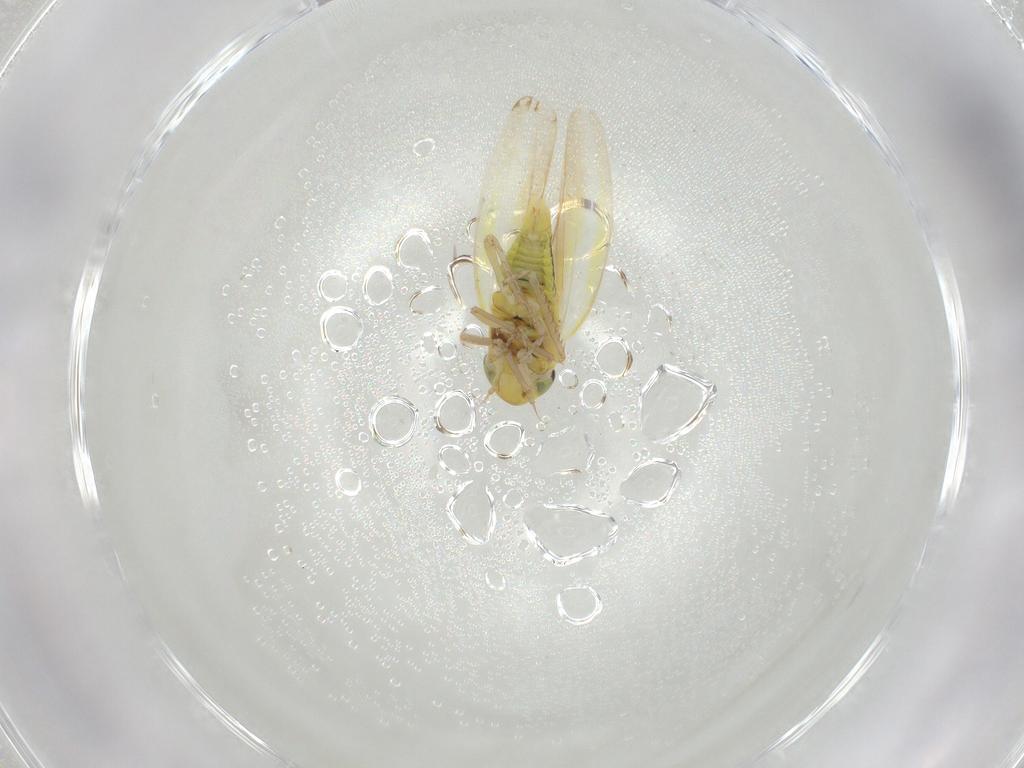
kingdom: Animalia
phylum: Arthropoda
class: Insecta
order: Hemiptera
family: Cicadellidae
